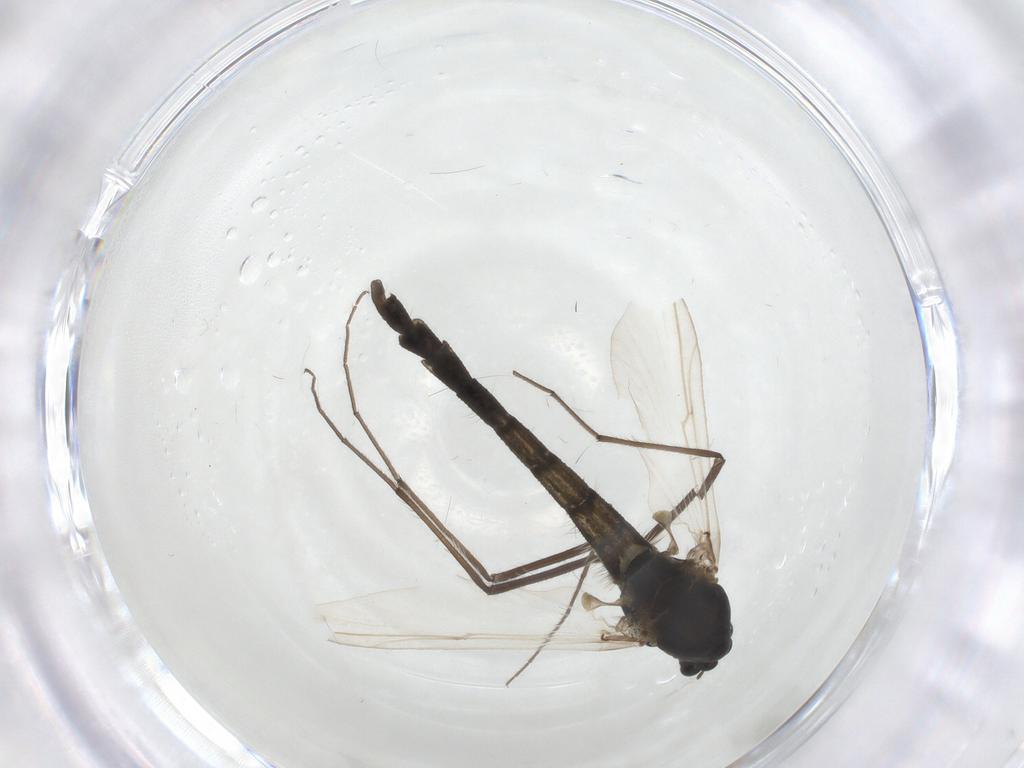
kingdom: Animalia
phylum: Arthropoda
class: Insecta
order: Diptera
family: Chironomidae
